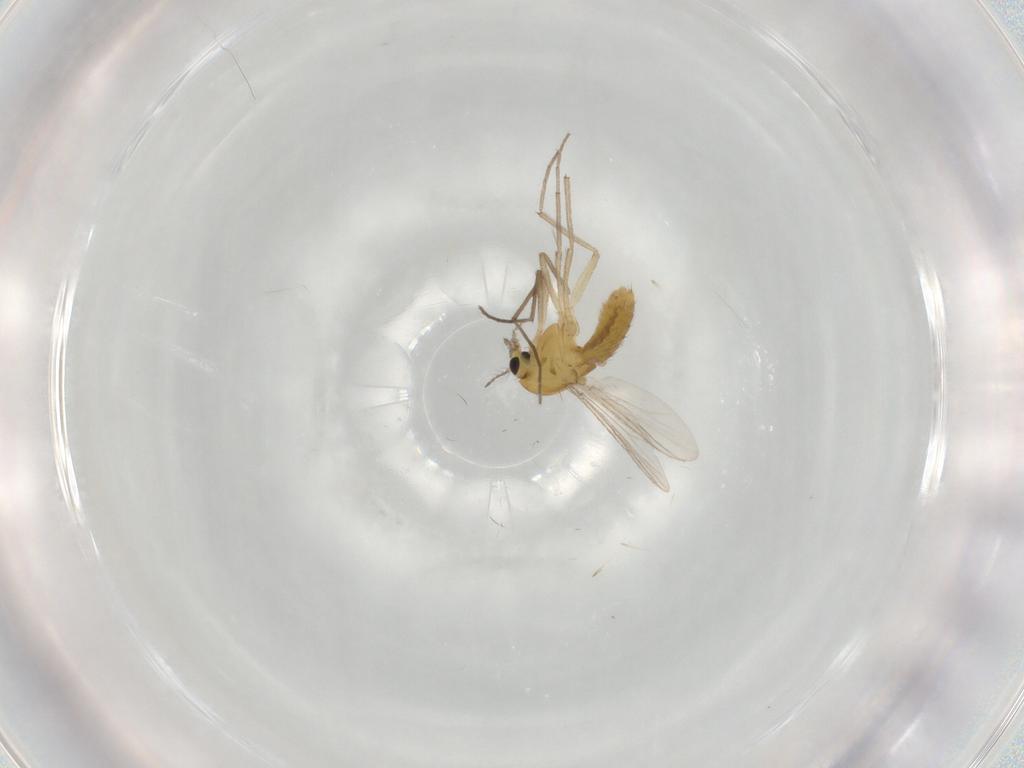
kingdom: Animalia
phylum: Arthropoda
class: Insecta
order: Diptera
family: Chironomidae
